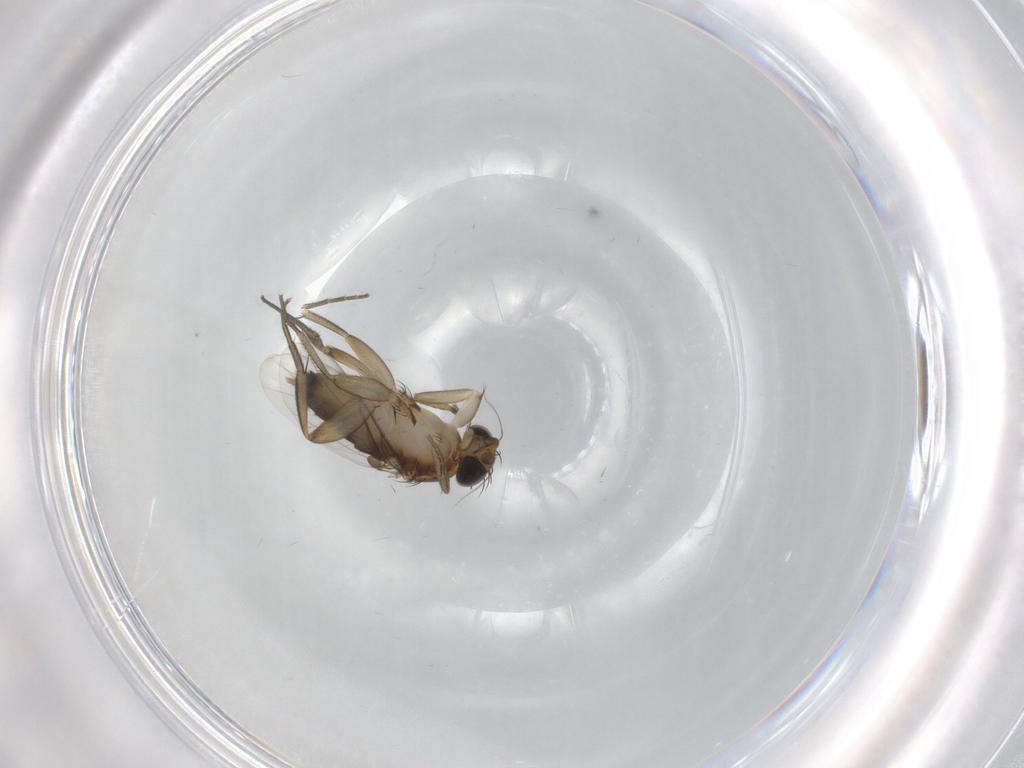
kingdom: Animalia
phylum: Arthropoda
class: Insecta
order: Diptera
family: Phoridae
